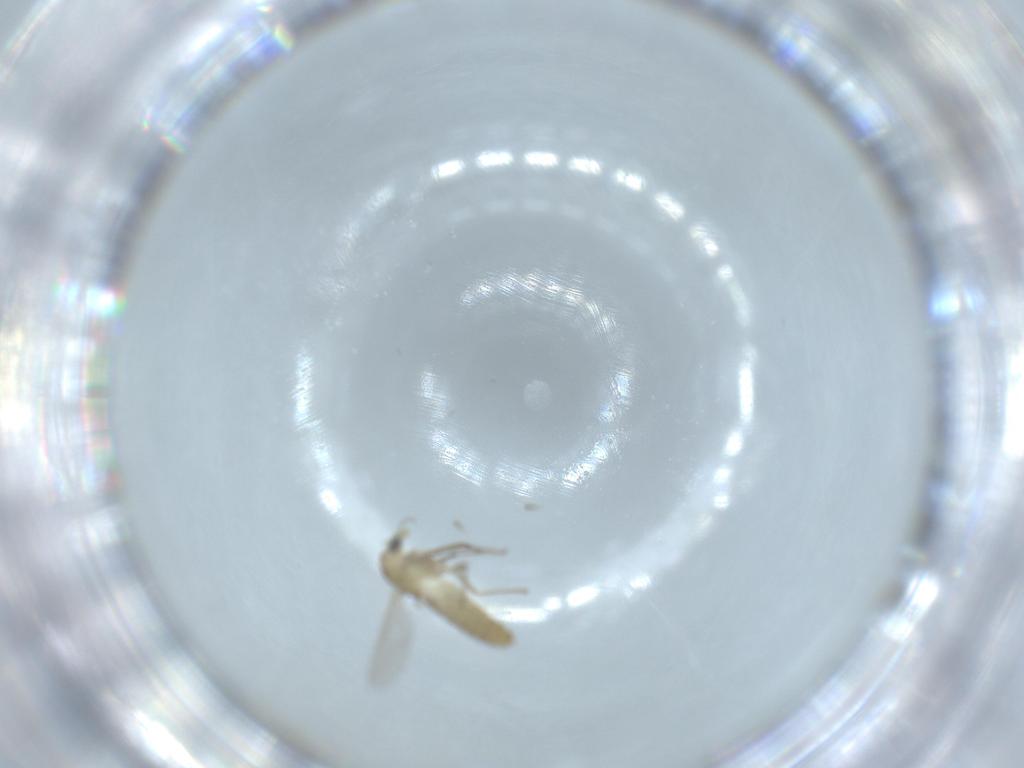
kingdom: Animalia
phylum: Arthropoda
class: Insecta
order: Diptera
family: Chironomidae
